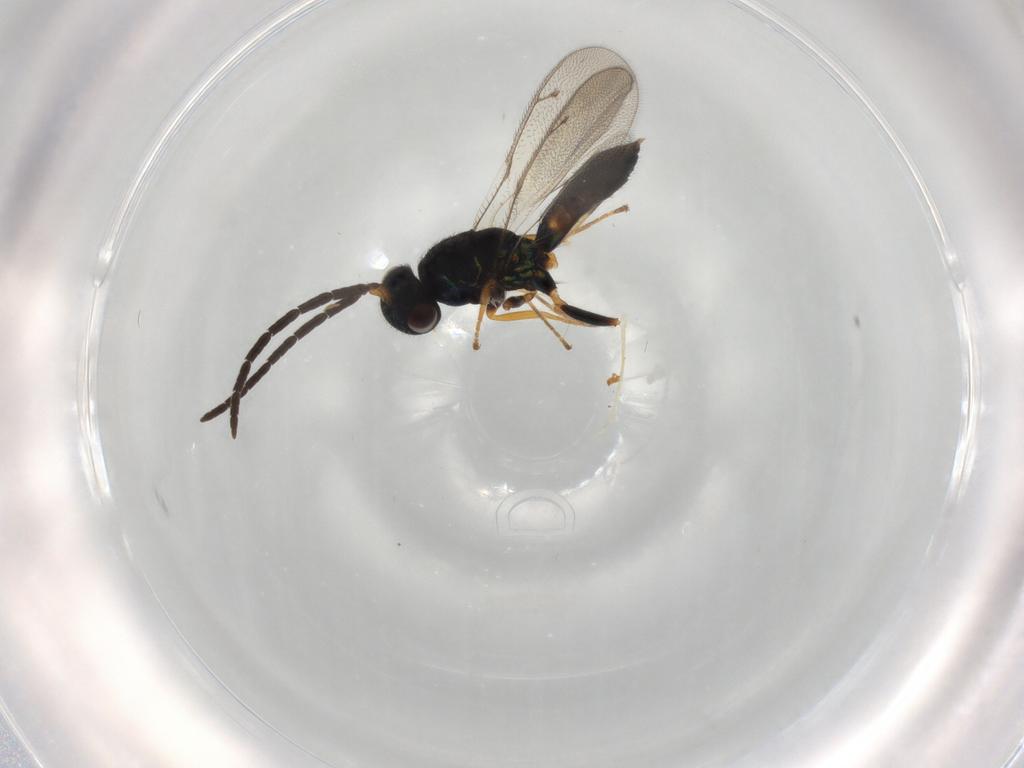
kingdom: Animalia
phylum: Arthropoda
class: Insecta
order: Hymenoptera
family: Pteromalidae
